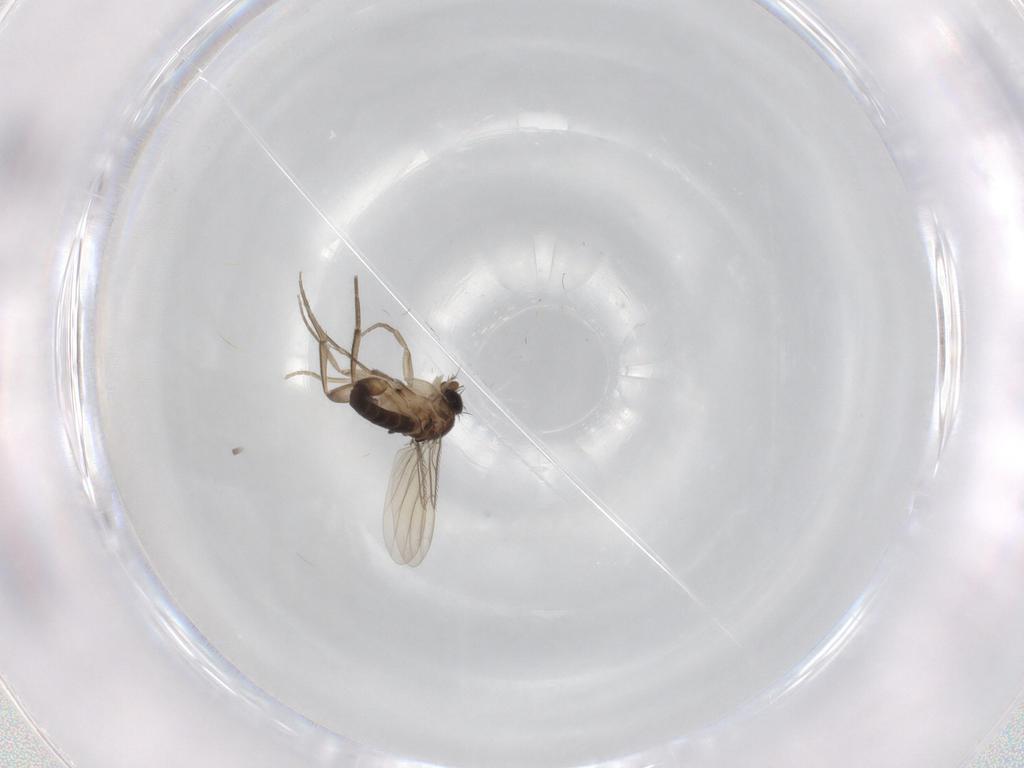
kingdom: Animalia
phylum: Arthropoda
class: Insecta
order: Diptera
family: Phoridae
